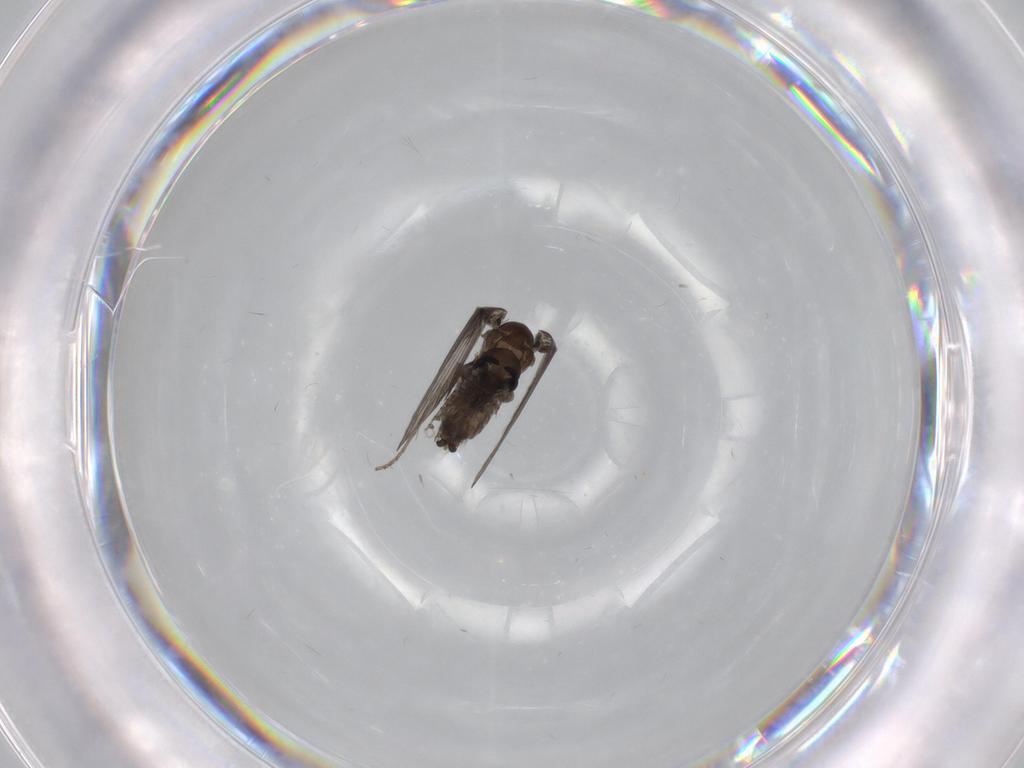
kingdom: Animalia
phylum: Arthropoda
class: Insecta
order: Diptera
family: Psychodidae
